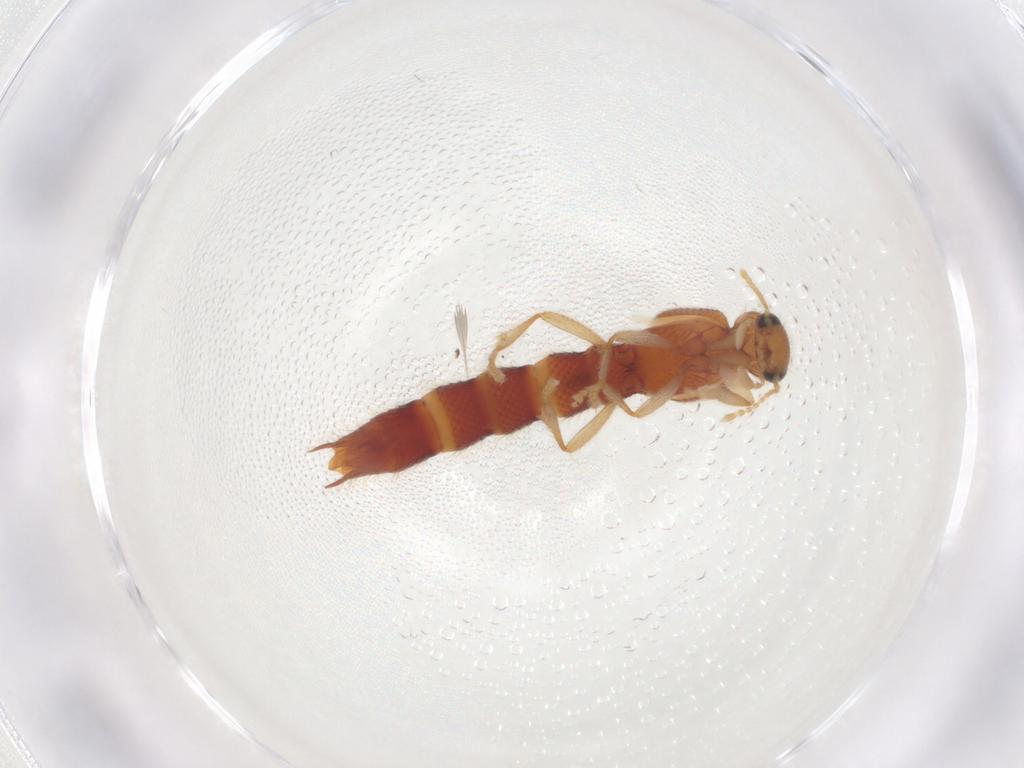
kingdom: Animalia
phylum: Arthropoda
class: Insecta
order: Coleoptera
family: Staphylinidae
